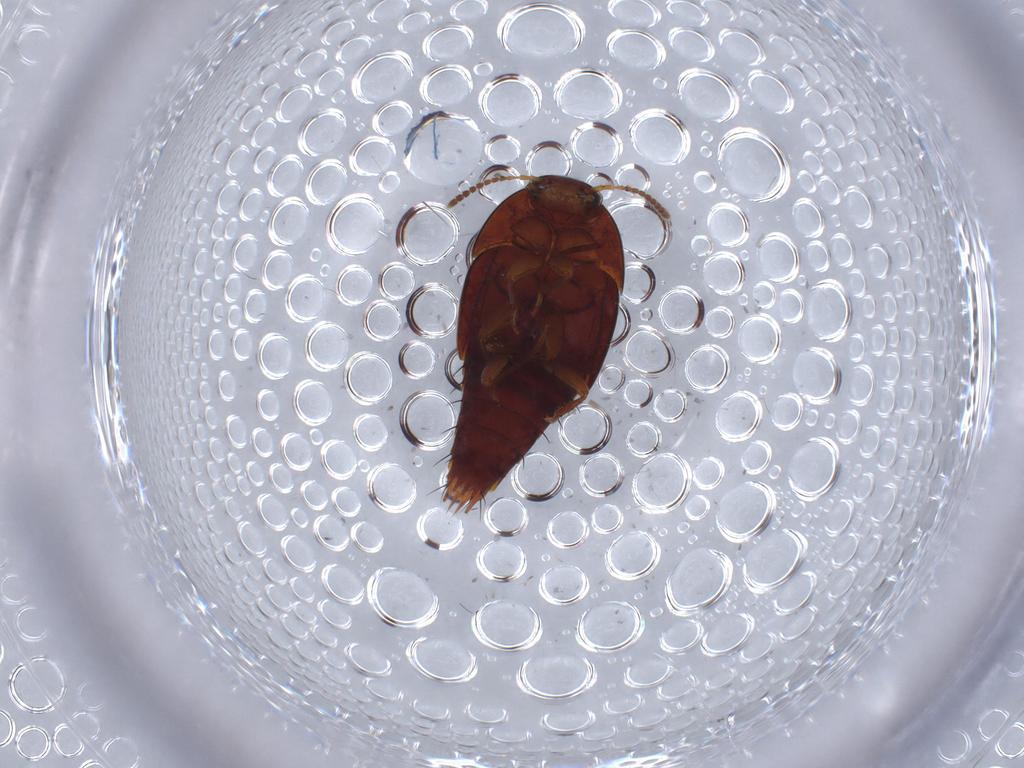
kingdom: Animalia
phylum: Arthropoda
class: Insecta
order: Coleoptera
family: Staphylinidae
